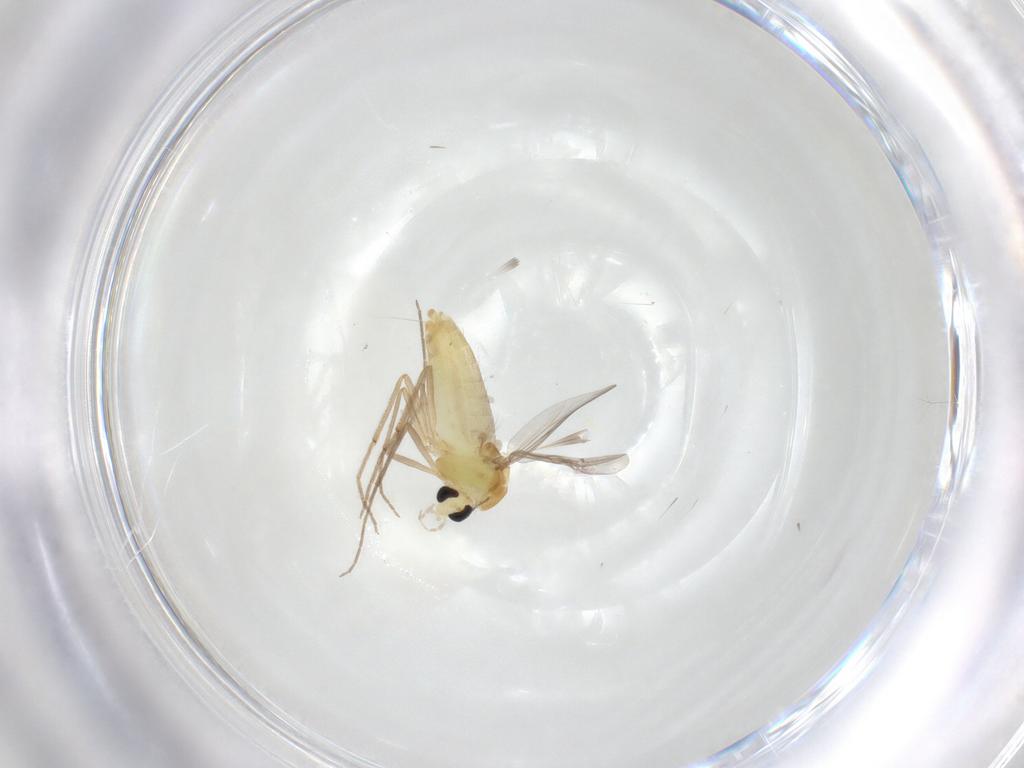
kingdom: Animalia
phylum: Arthropoda
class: Insecta
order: Diptera
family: Chironomidae
